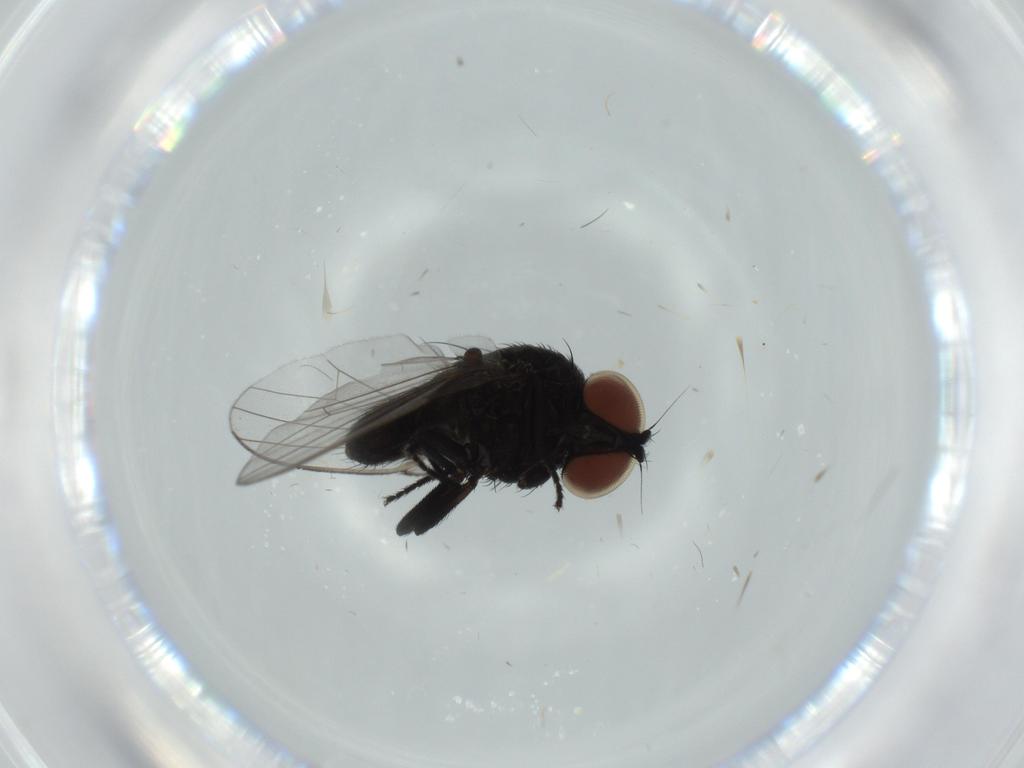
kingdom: Animalia
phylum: Arthropoda
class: Insecta
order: Diptera
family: Milichiidae
